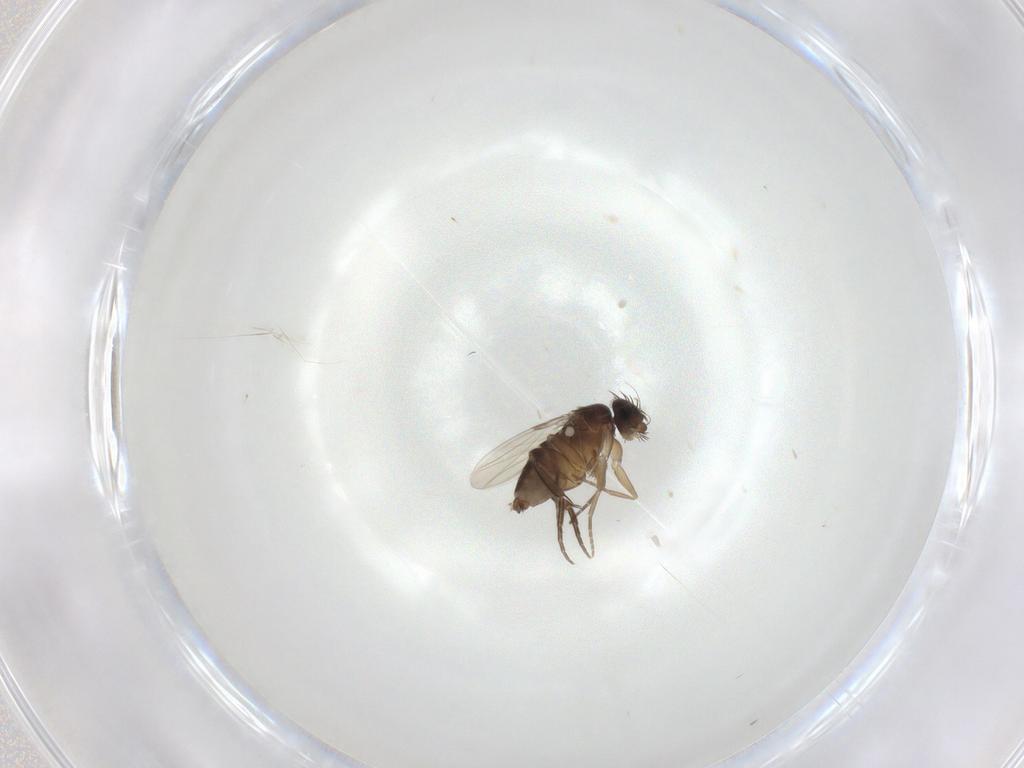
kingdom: Animalia
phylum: Arthropoda
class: Insecta
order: Diptera
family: Phoridae
